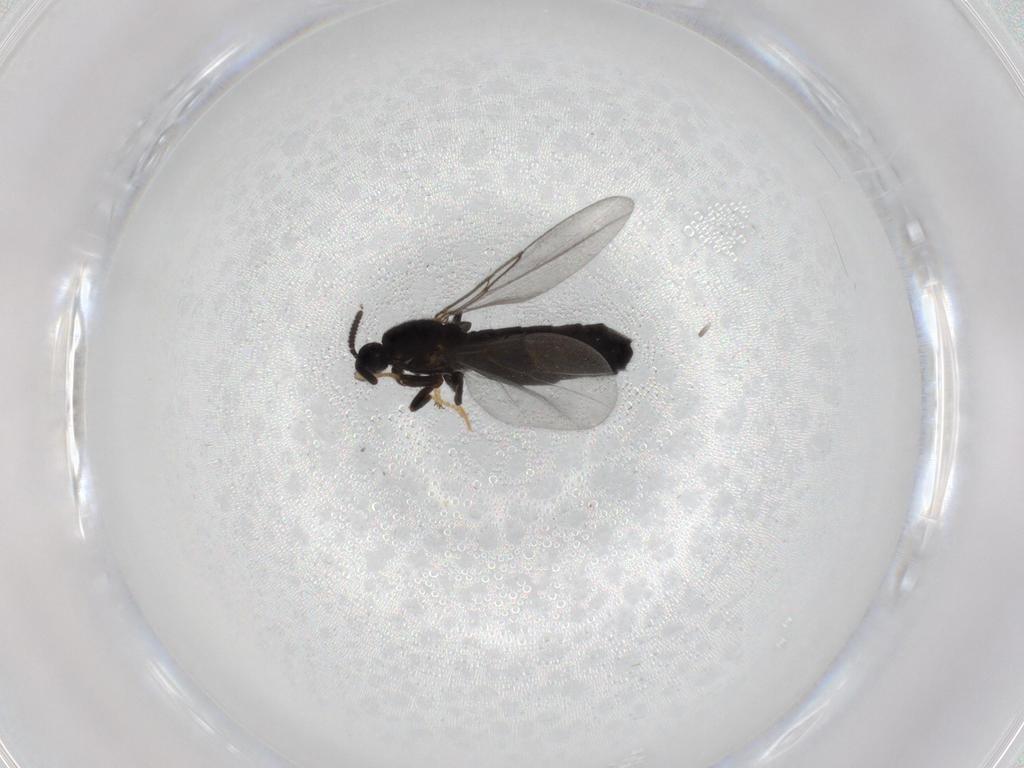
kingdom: Animalia
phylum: Arthropoda
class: Insecta
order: Diptera
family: Scatopsidae
